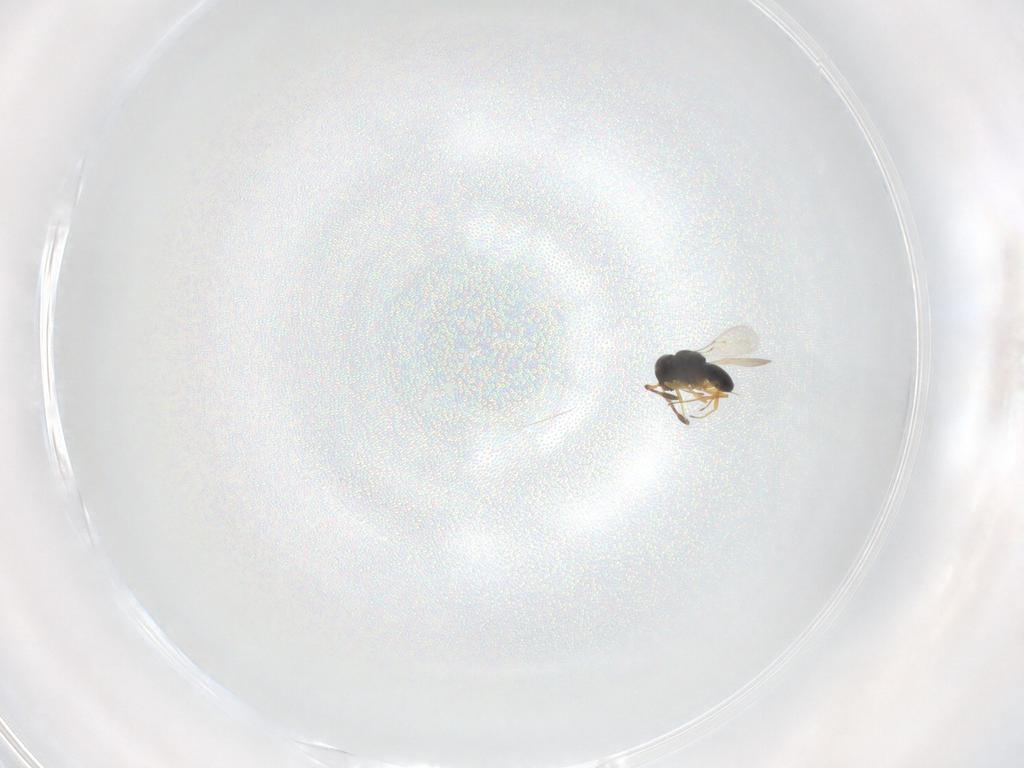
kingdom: Animalia
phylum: Arthropoda
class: Insecta
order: Hymenoptera
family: Scelionidae
